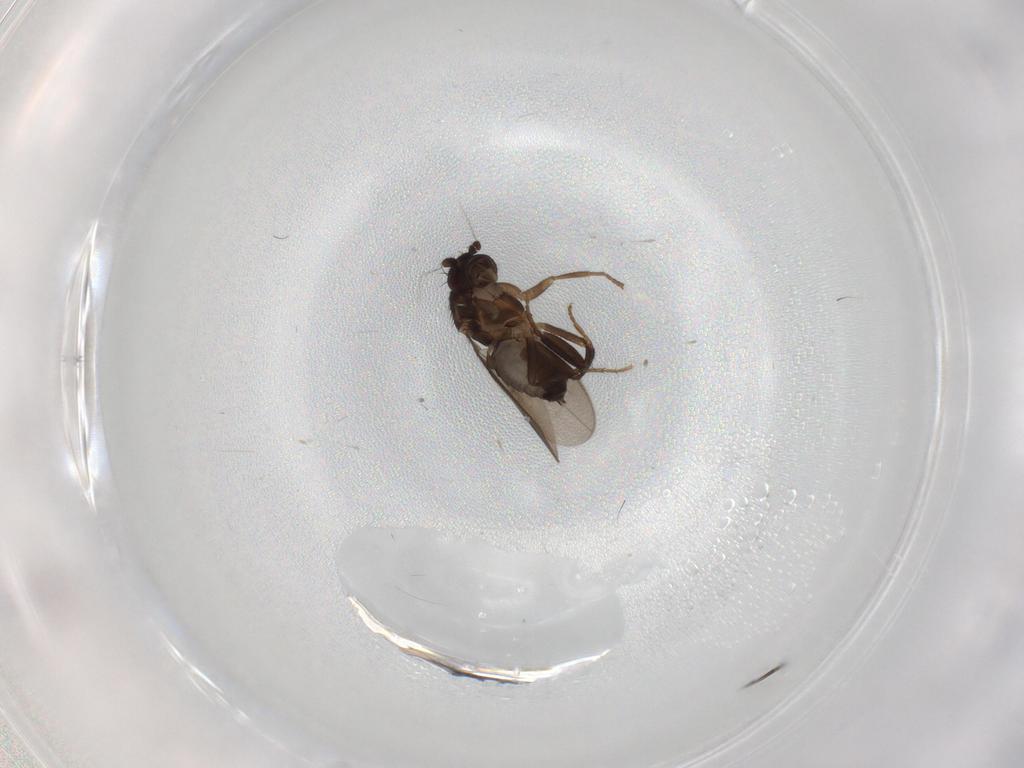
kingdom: Animalia
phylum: Arthropoda
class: Insecta
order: Diptera
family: Sphaeroceridae
